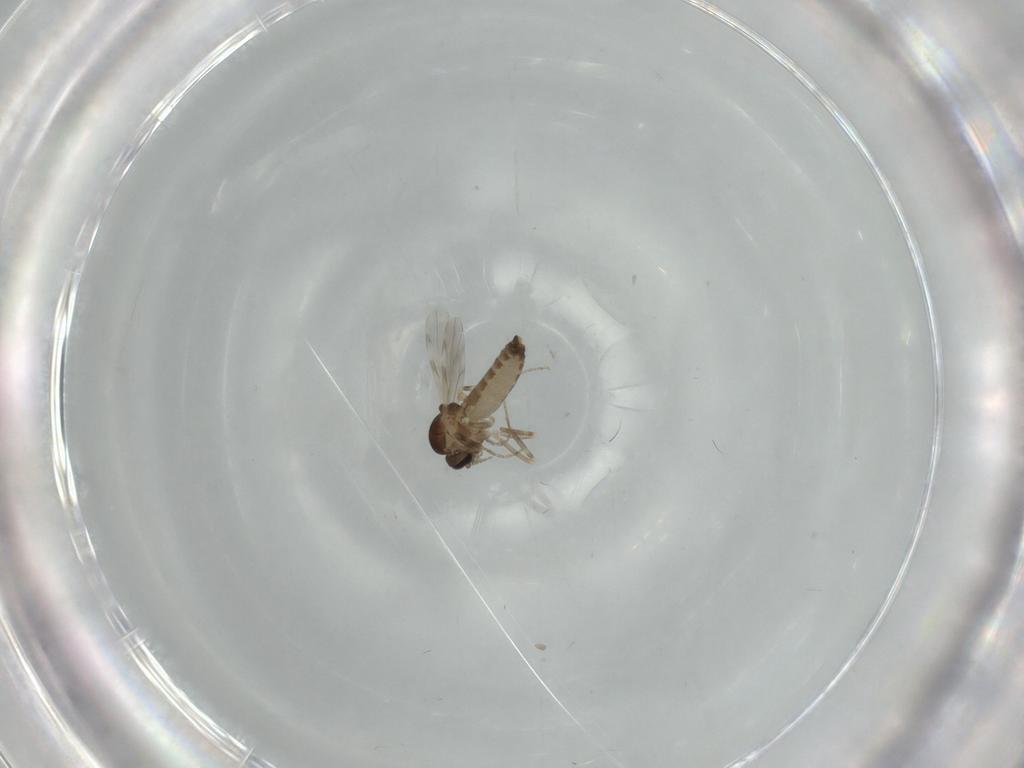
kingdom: Animalia
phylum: Arthropoda
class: Insecta
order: Diptera
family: Ceratopogonidae
